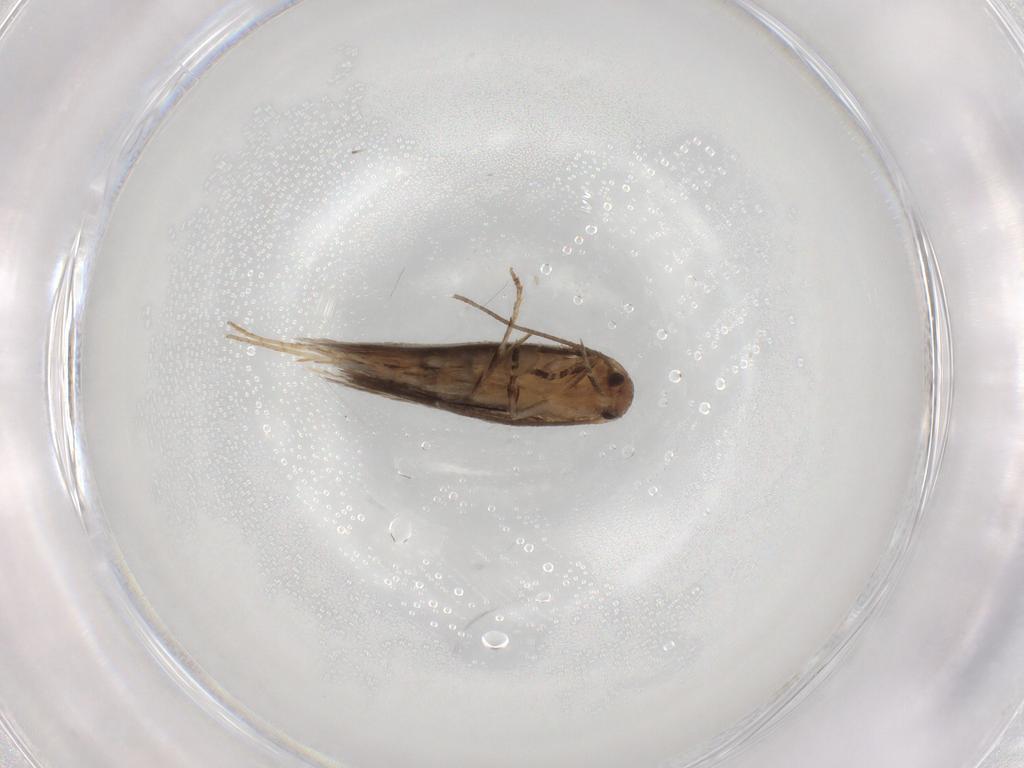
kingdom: Animalia
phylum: Arthropoda
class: Insecta
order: Lepidoptera
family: Elachistidae
